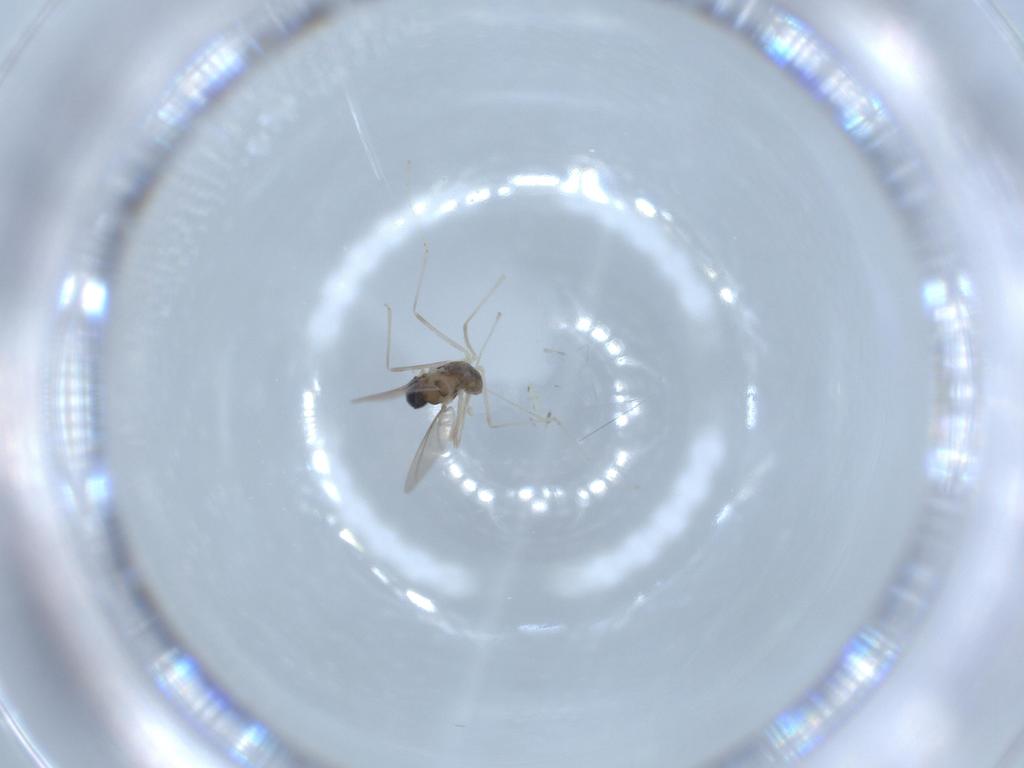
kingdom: Animalia
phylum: Arthropoda
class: Insecta
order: Diptera
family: Cecidomyiidae
